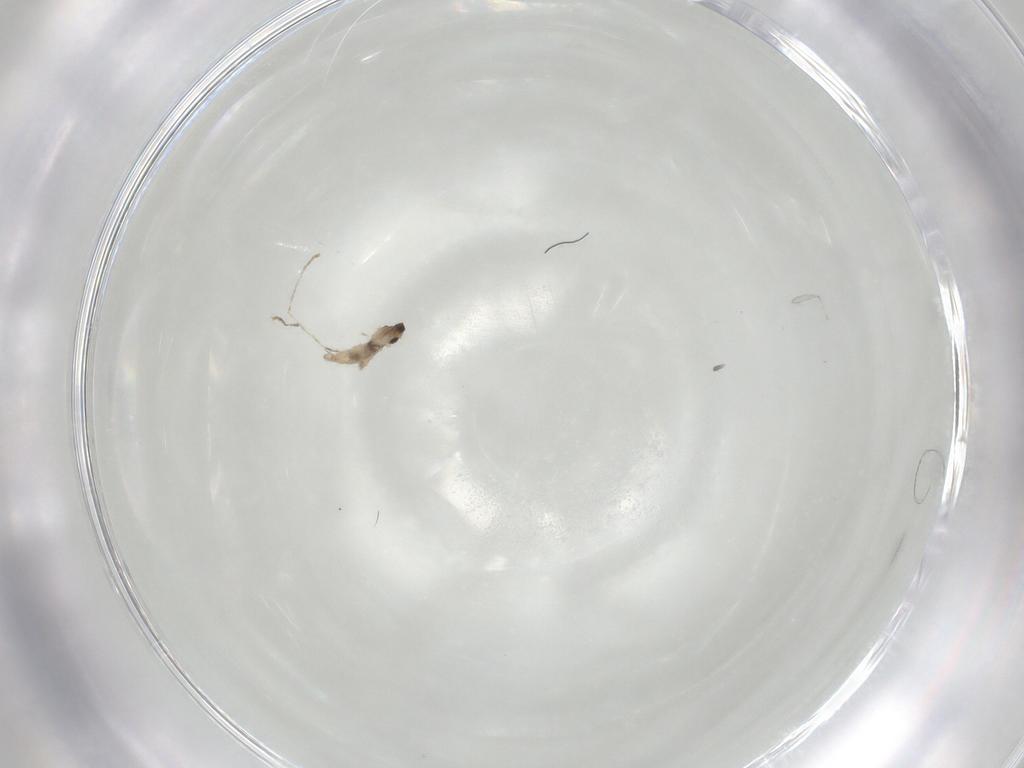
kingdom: Animalia
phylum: Arthropoda
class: Insecta
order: Diptera
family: Cecidomyiidae
